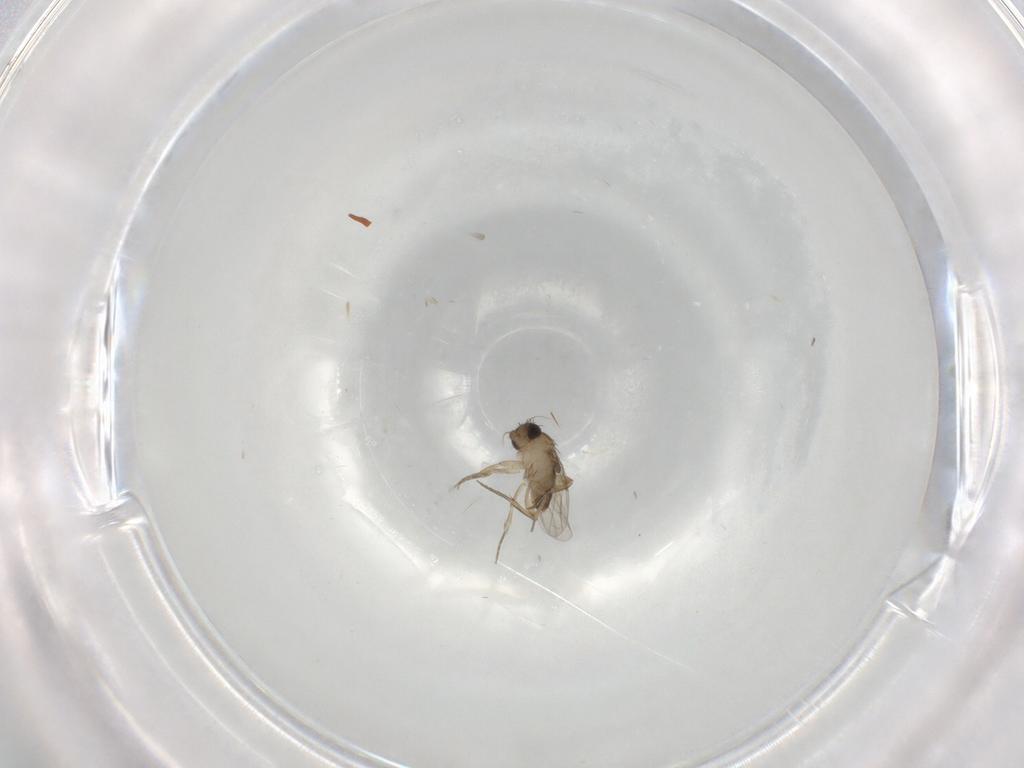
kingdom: Animalia
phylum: Arthropoda
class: Insecta
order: Diptera
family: Cecidomyiidae
